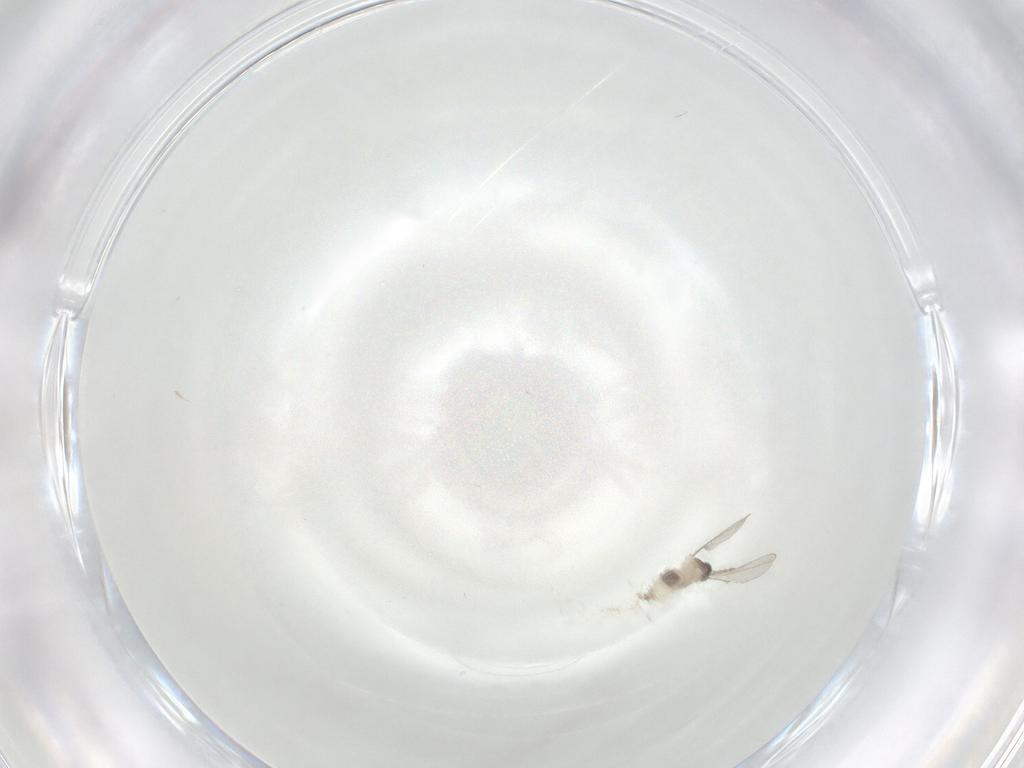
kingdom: Animalia
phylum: Arthropoda
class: Insecta
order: Diptera
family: Cecidomyiidae
